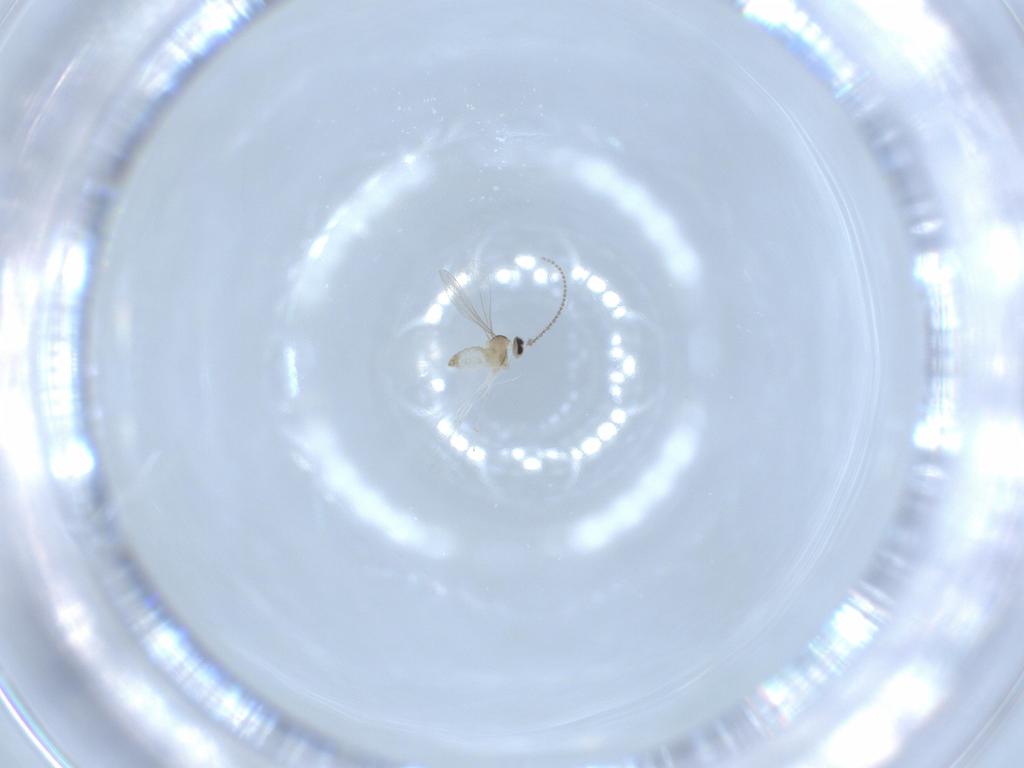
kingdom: Animalia
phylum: Arthropoda
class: Insecta
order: Diptera
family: Cecidomyiidae
